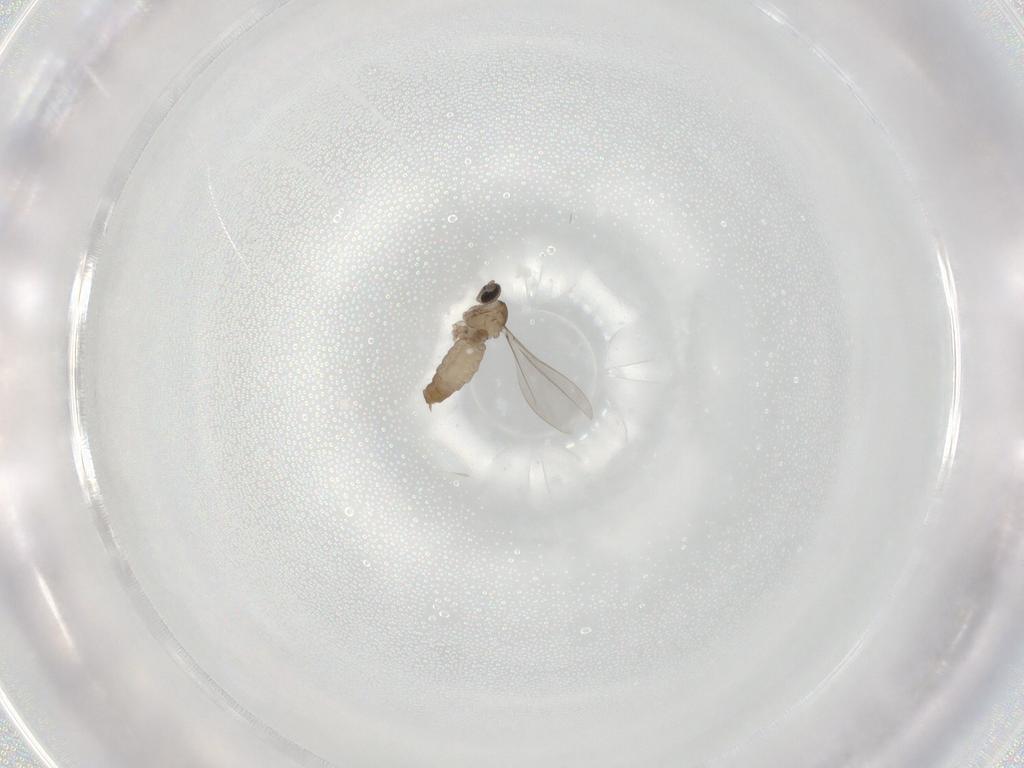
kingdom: Animalia
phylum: Arthropoda
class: Insecta
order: Diptera
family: Cecidomyiidae
